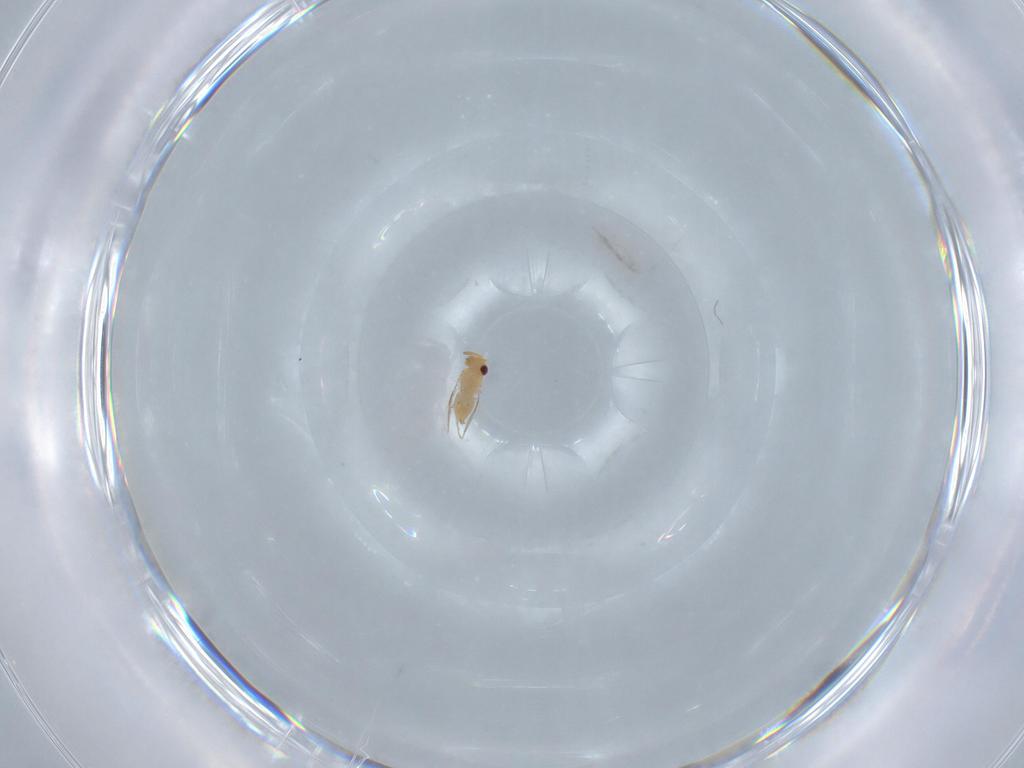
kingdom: Animalia
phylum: Arthropoda
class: Insecta
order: Hymenoptera
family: Aphelinidae
